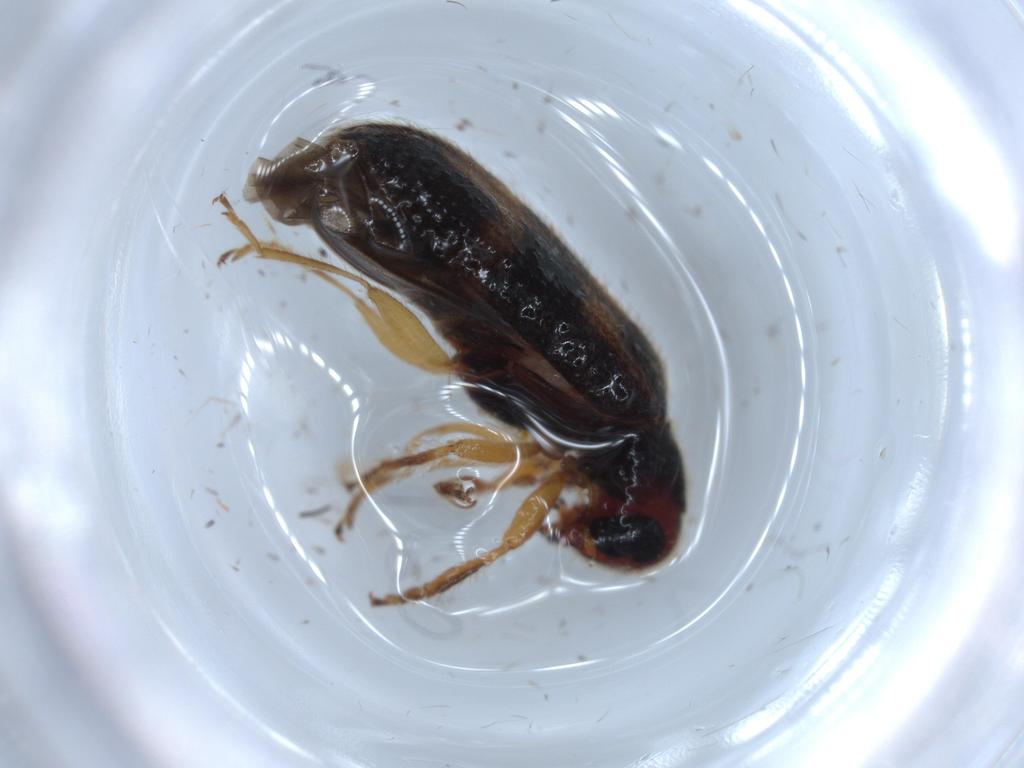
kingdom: Animalia
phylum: Arthropoda
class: Insecta
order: Coleoptera
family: Cleridae
